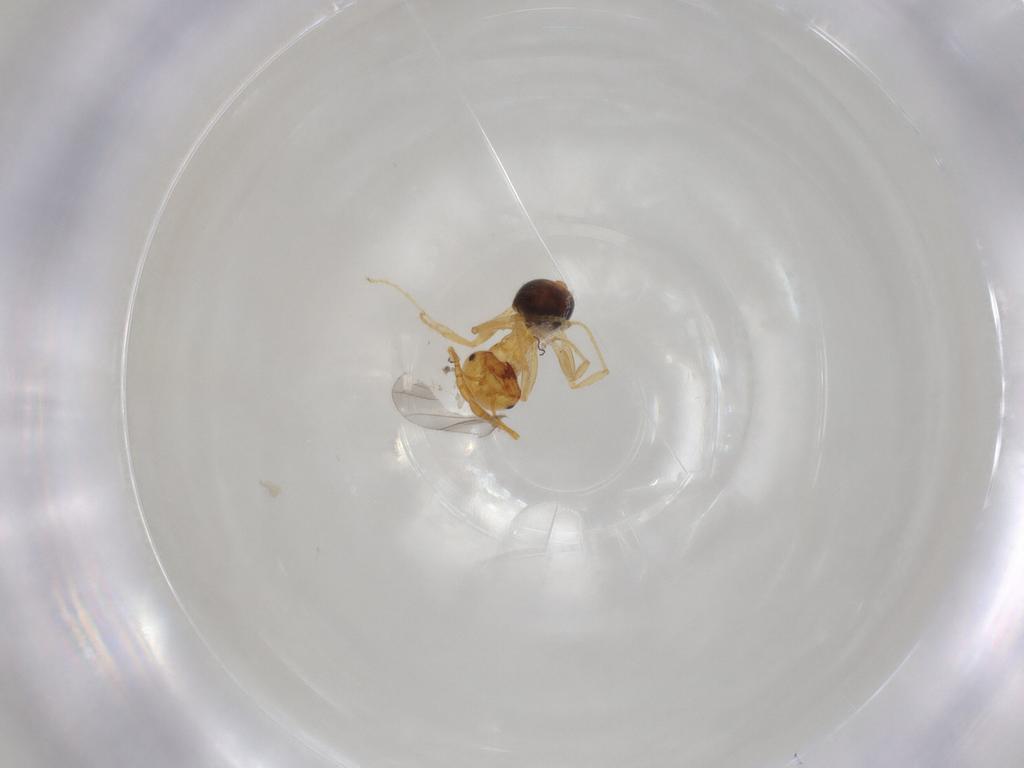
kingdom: Animalia
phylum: Arthropoda
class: Insecta
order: Hymenoptera
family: Formicidae
